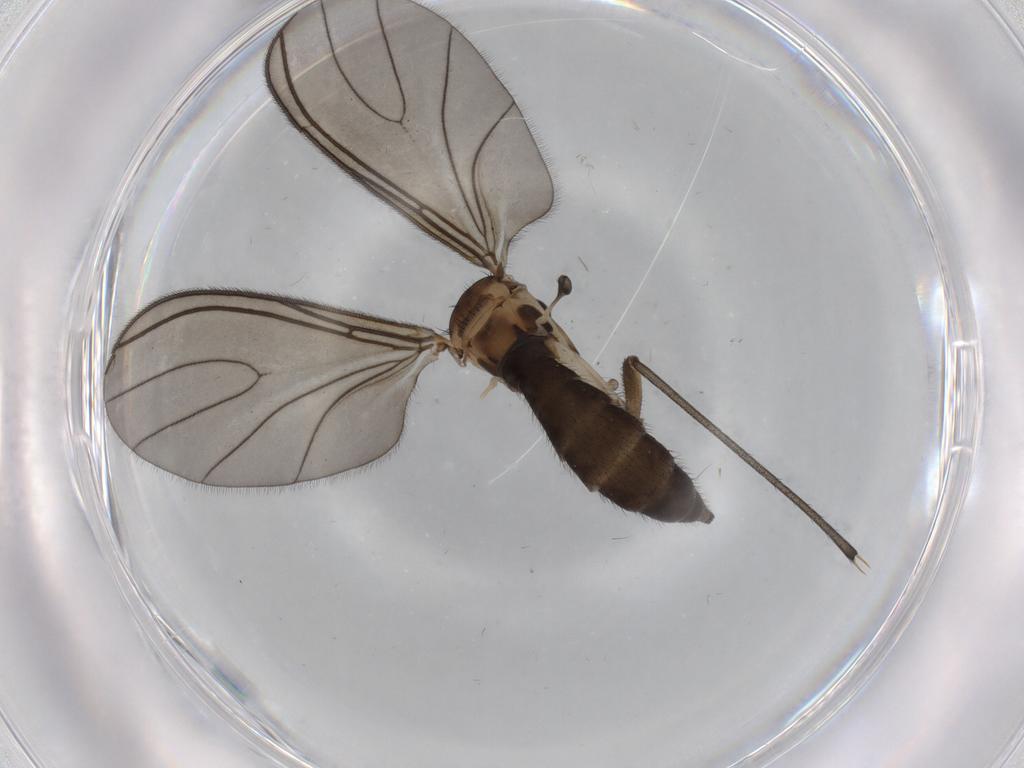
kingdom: Animalia
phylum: Arthropoda
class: Insecta
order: Diptera
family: Sciaridae
